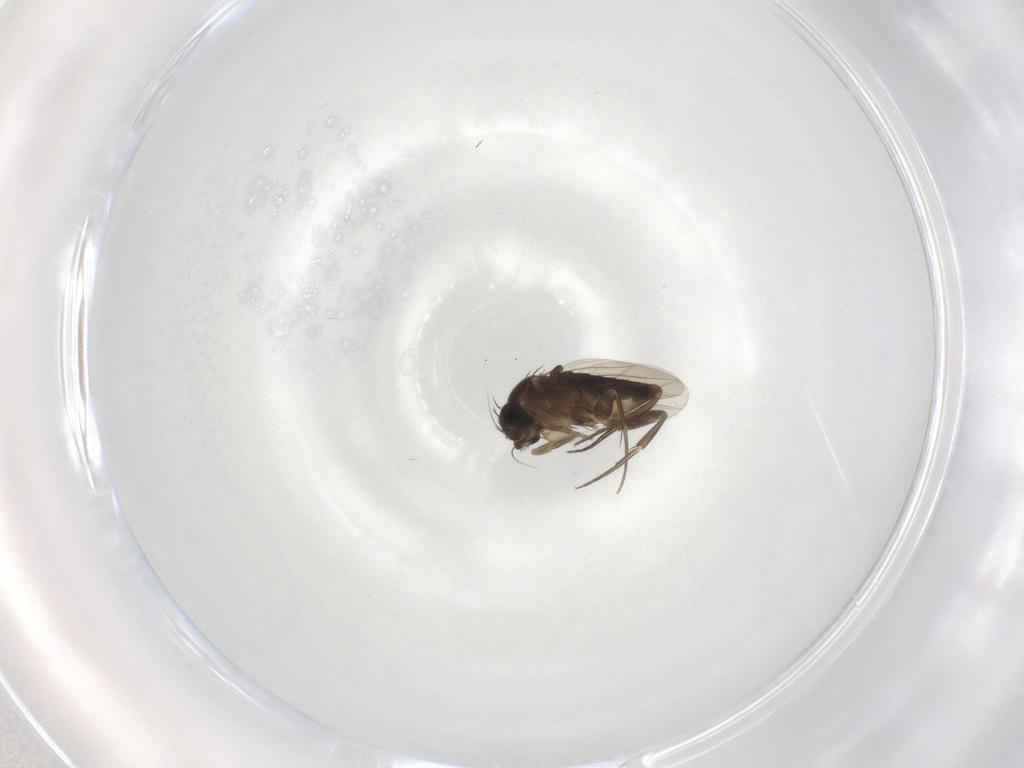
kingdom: Animalia
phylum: Arthropoda
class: Insecta
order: Diptera
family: Phoridae
